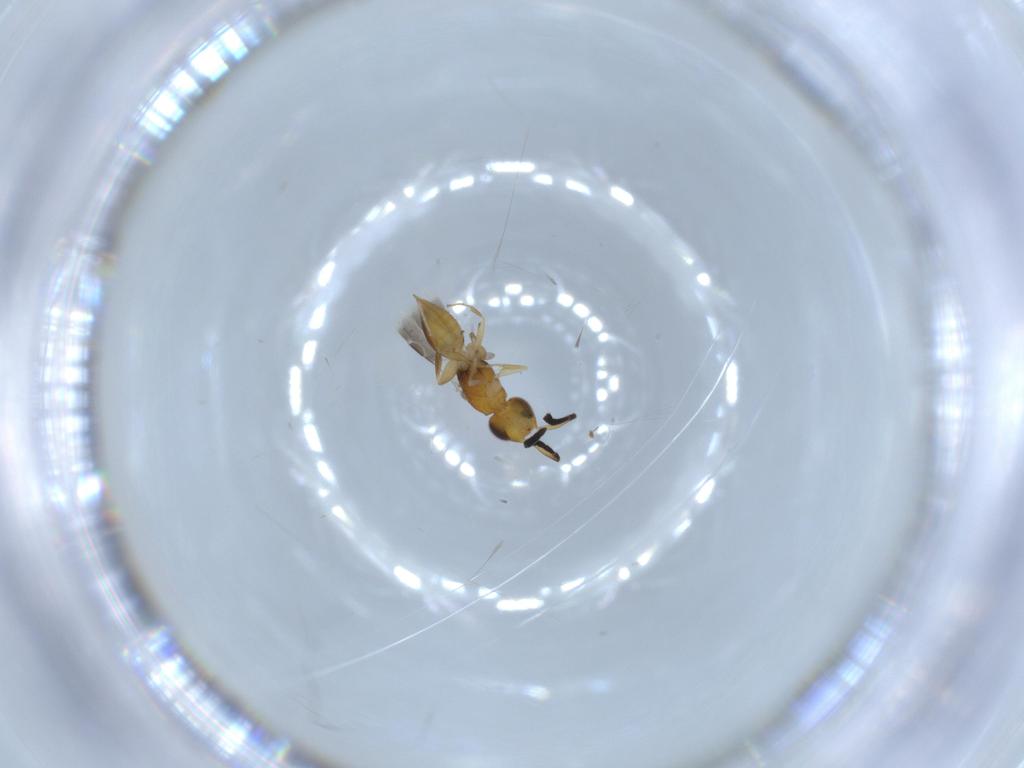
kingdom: Animalia
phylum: Arthropoda
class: Insecta
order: Hymenoptera
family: Megaspilidae
